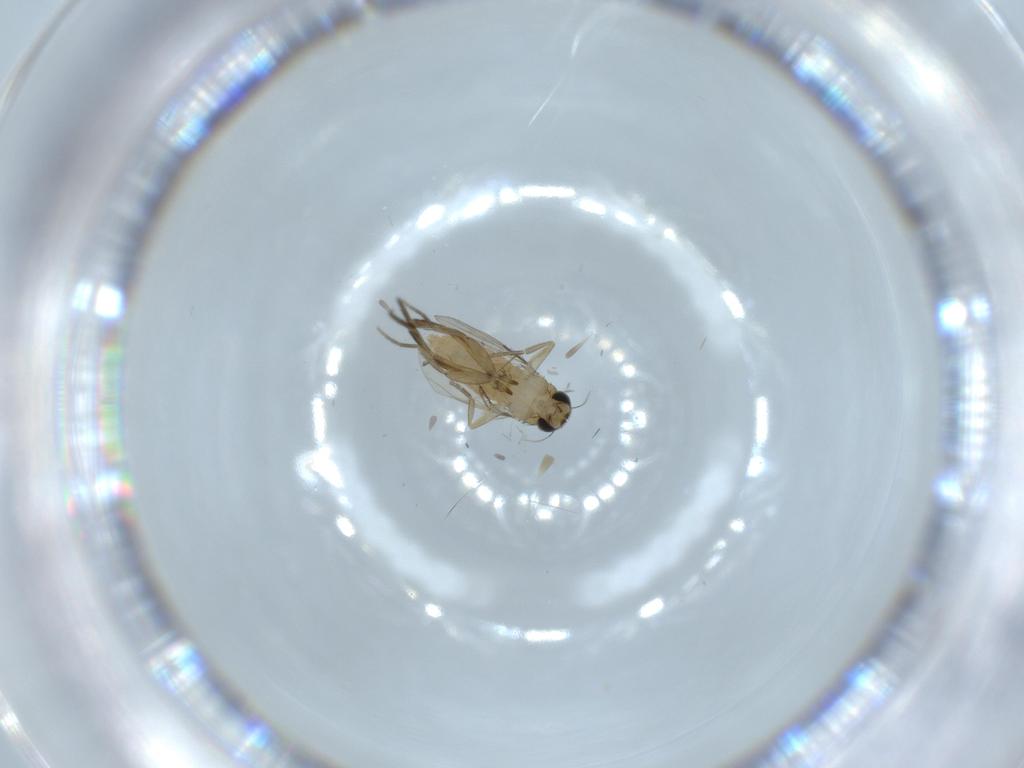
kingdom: Animalia
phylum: Arthropoda
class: Insecta
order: Diptera
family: Phoridae
